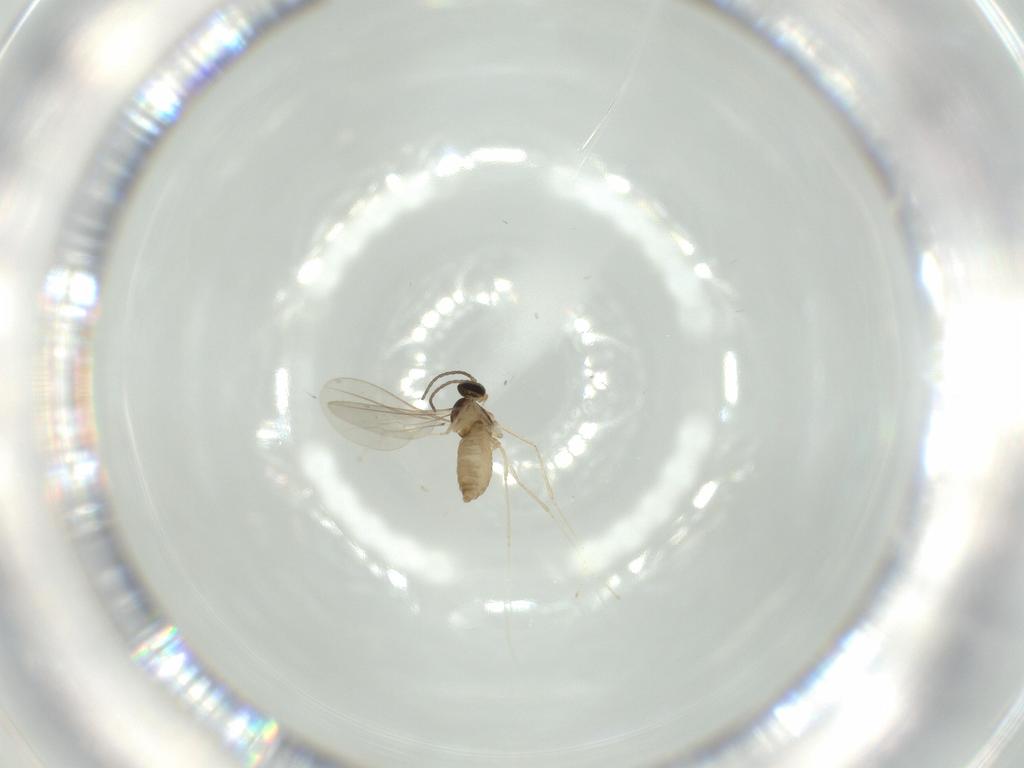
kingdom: Animalia
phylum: Arthropoda
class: Insecta
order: Diptera
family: Cecidomyiidae
